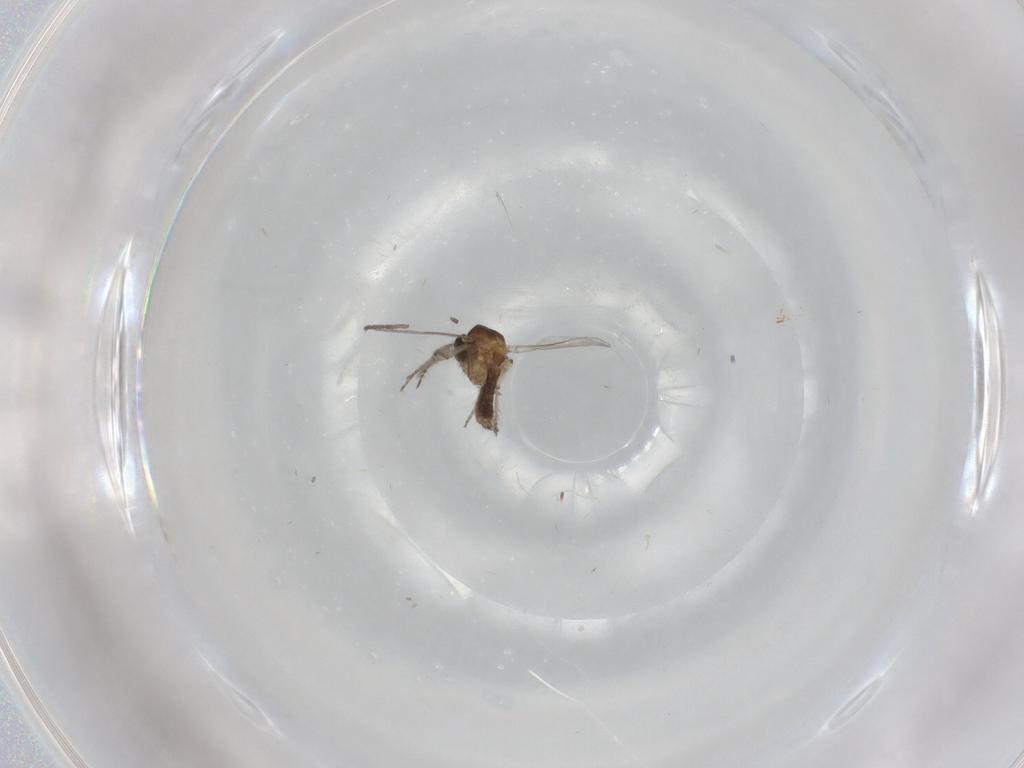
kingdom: Animalia
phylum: Arthropoda
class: Insecta
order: Diptera
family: Ceratopogonidae
